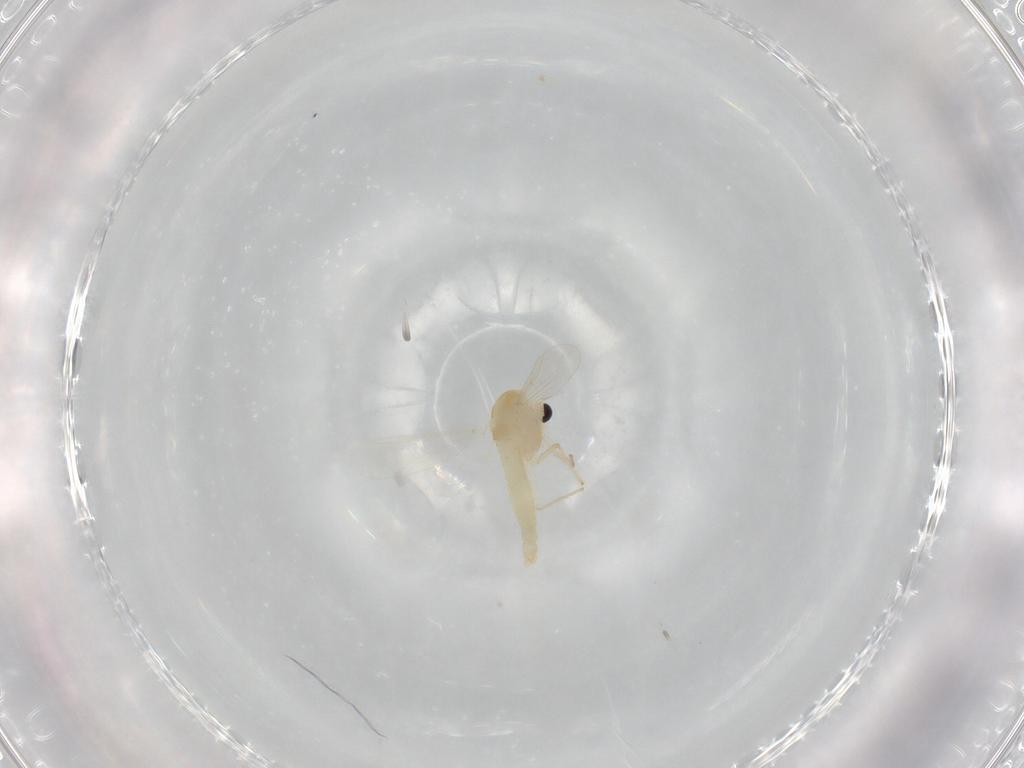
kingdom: Animalia
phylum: Arthropoda
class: Insecta
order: Diptera
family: Chironomidae
